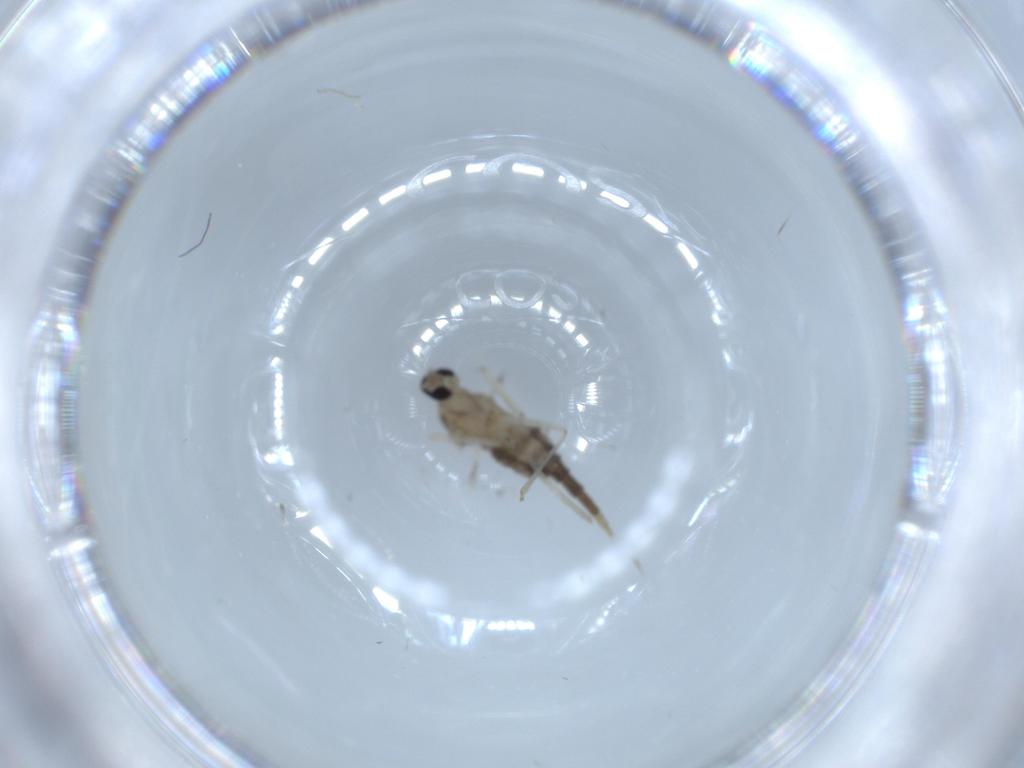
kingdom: Animalia
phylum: Arthropoda
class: Insecta
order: Diptera
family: Cecidomyiidae
